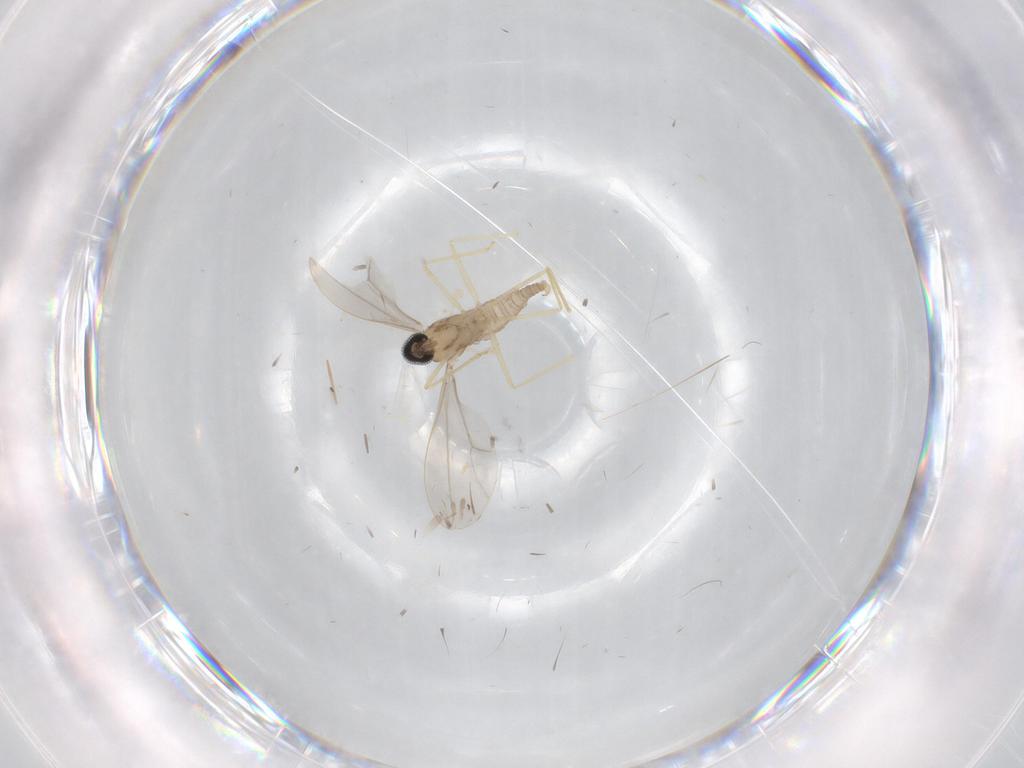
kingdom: Animalia
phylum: Arthropoda
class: Insecta
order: Diptera
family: Cecidomyiidae
